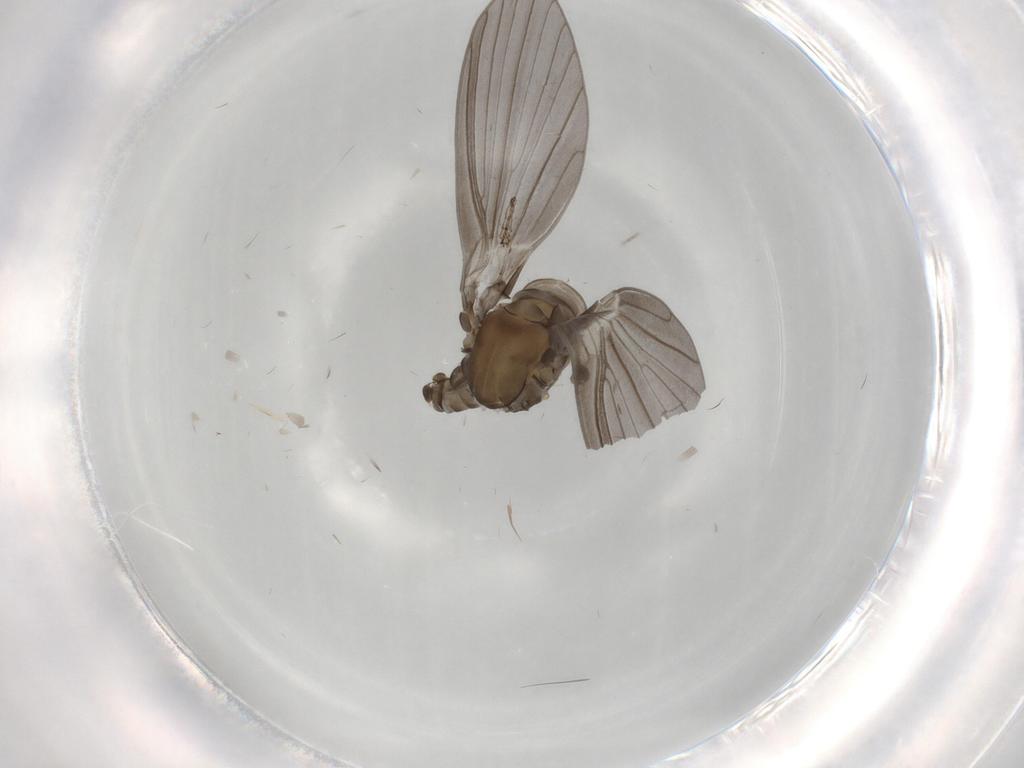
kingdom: Animalia
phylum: Arthropoda
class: Insecta
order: Diptera
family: Psychodidae
